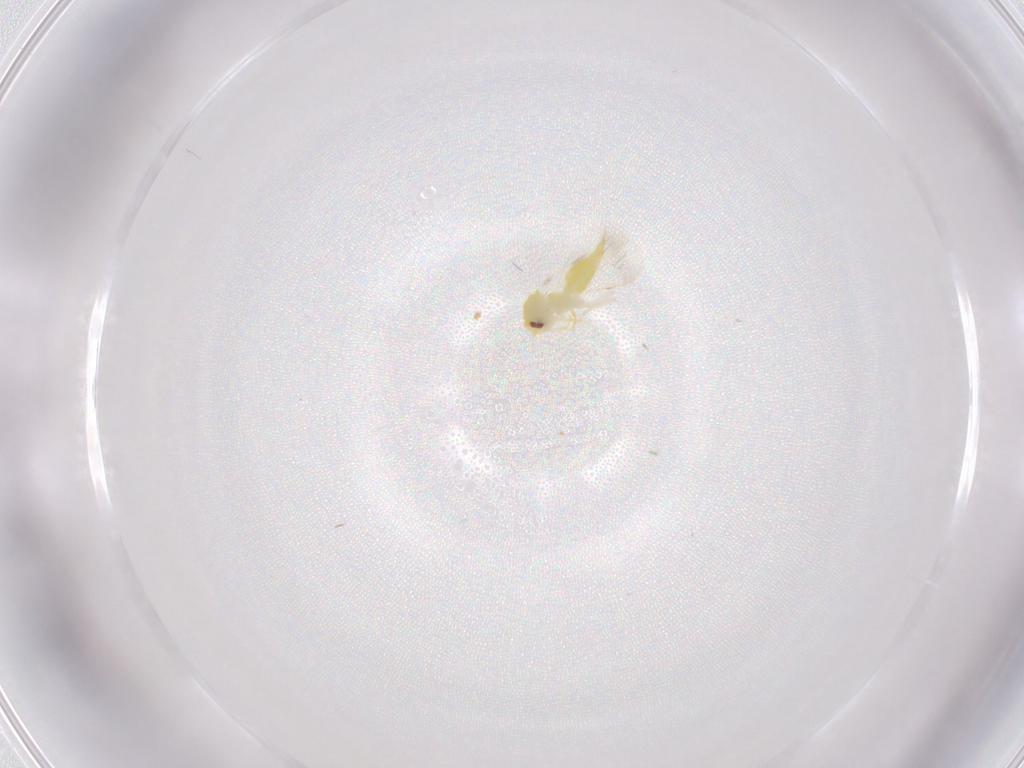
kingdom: Animalia
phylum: Arthropoda
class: Insecta
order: Hemiptera
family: Aleyrodidae
